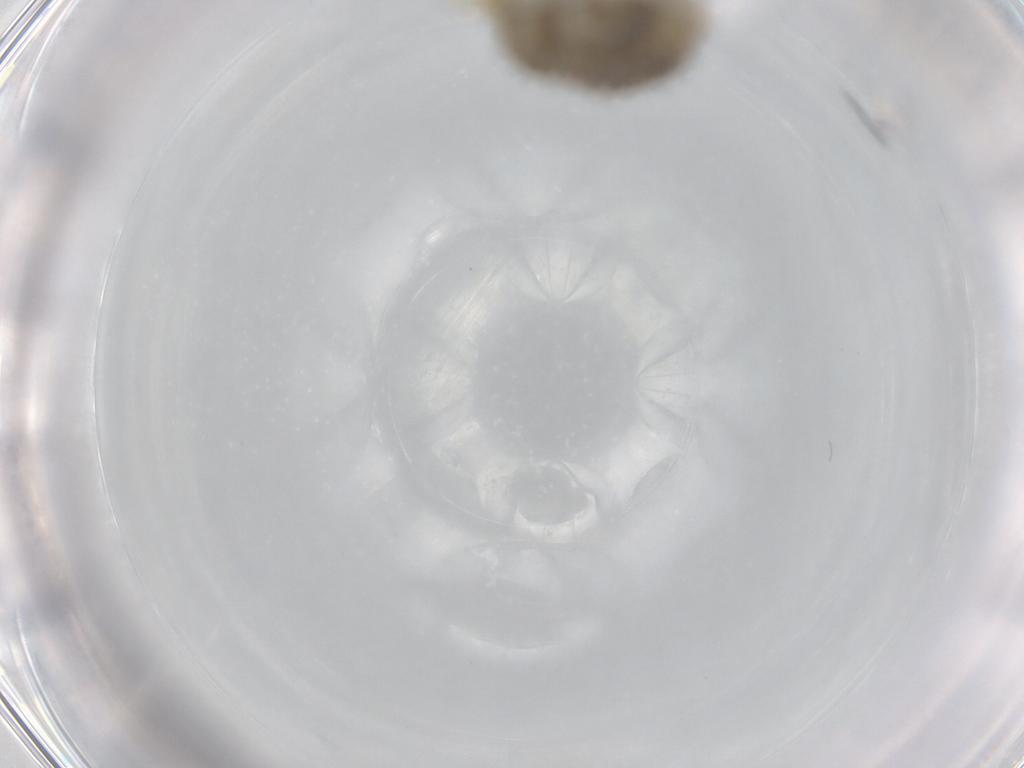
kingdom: Animalia
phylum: Arthropoda
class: Arachnida
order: Trombidiformes
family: Limnesiidae
